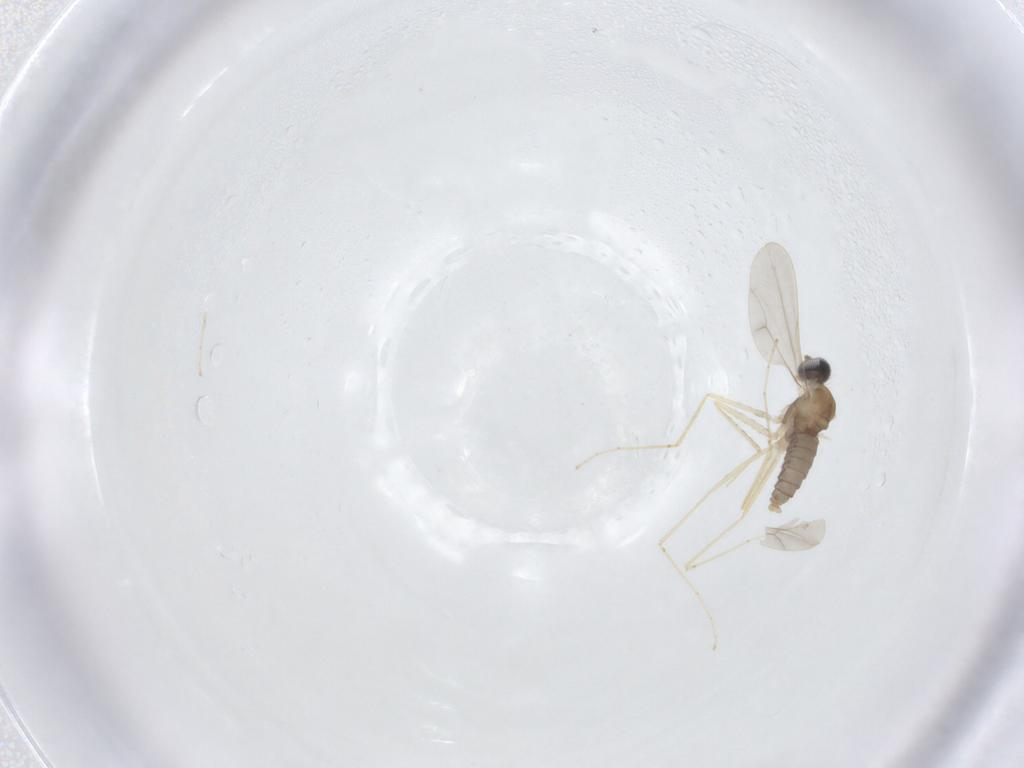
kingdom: Animalia
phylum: Arthropoda
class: Insecta
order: Diptera
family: Cecidomyiidae
